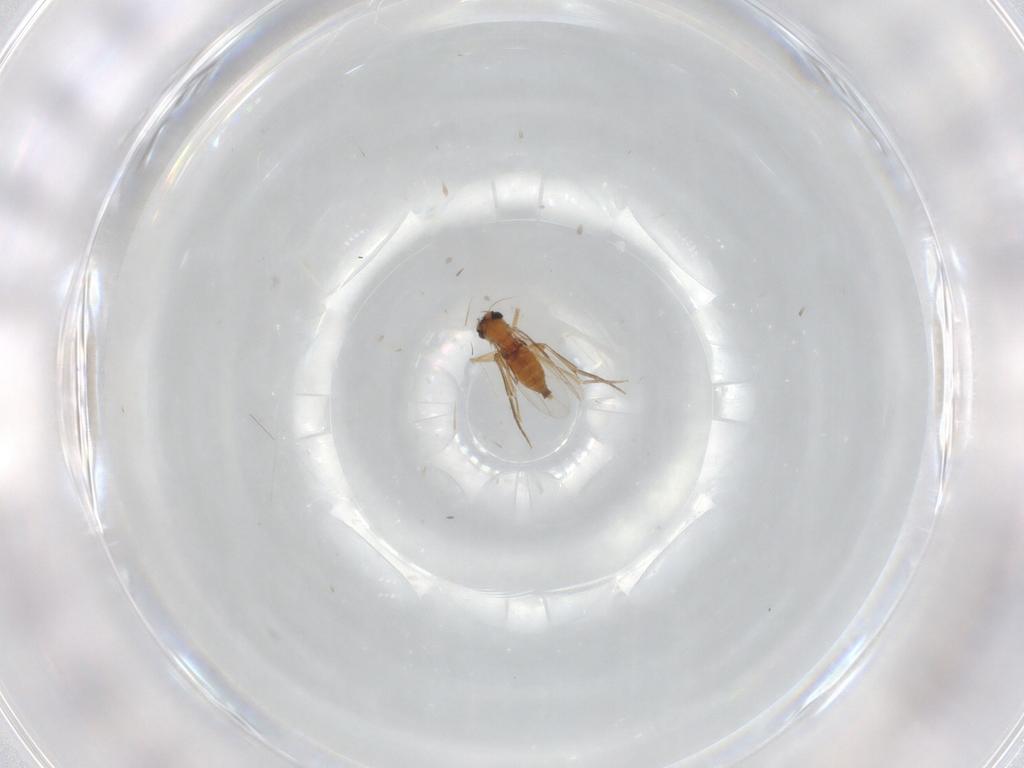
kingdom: Animalia
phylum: Arthropoda
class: Insecta
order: Diptera
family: Phoridae
